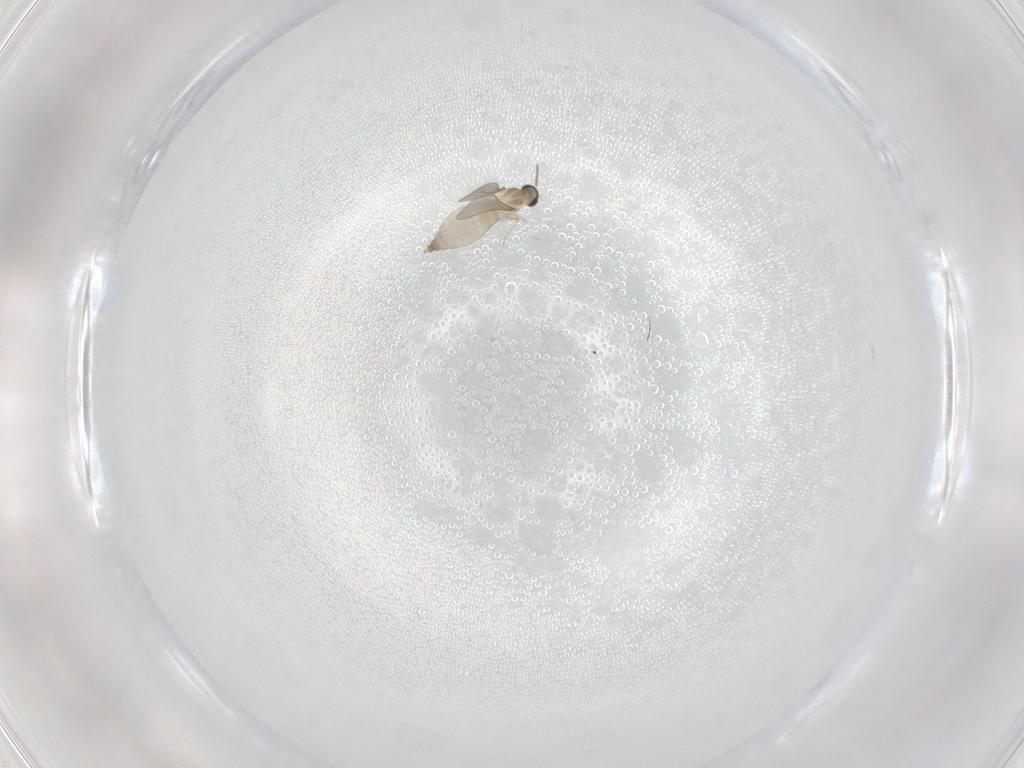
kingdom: Animalia
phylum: Arthropoda
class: Insecta
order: Diptera
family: Cecidomyiidae
